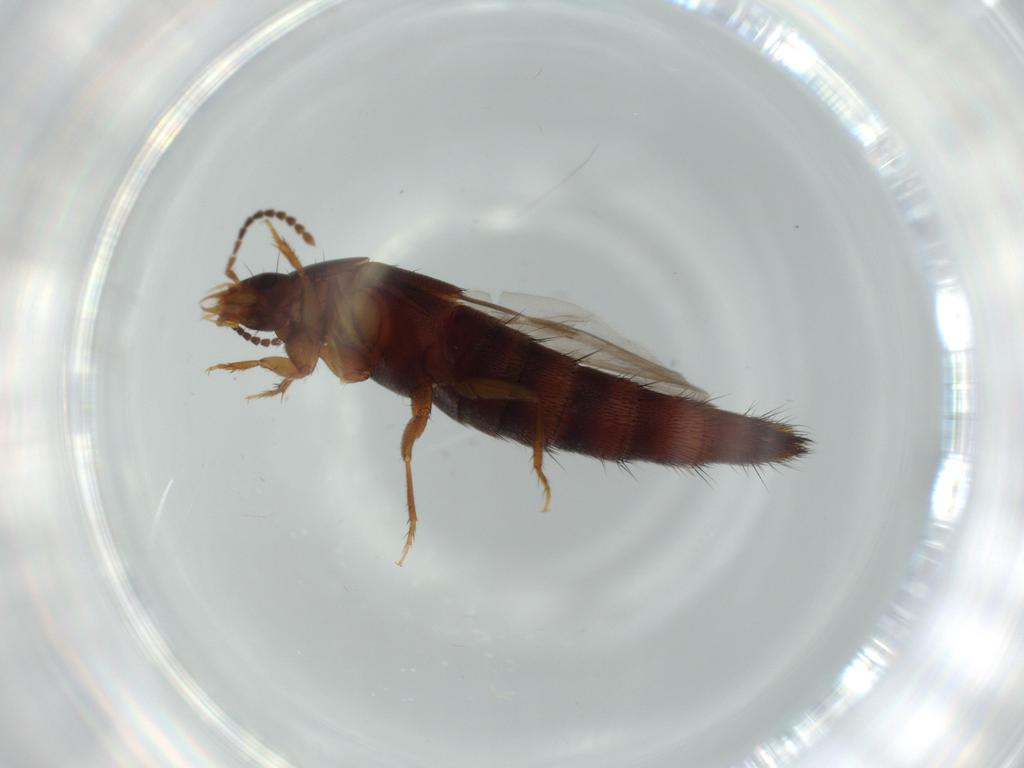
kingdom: Animalia
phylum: Arthropoda
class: Insecta
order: Coleoptera
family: Staphylinidae
